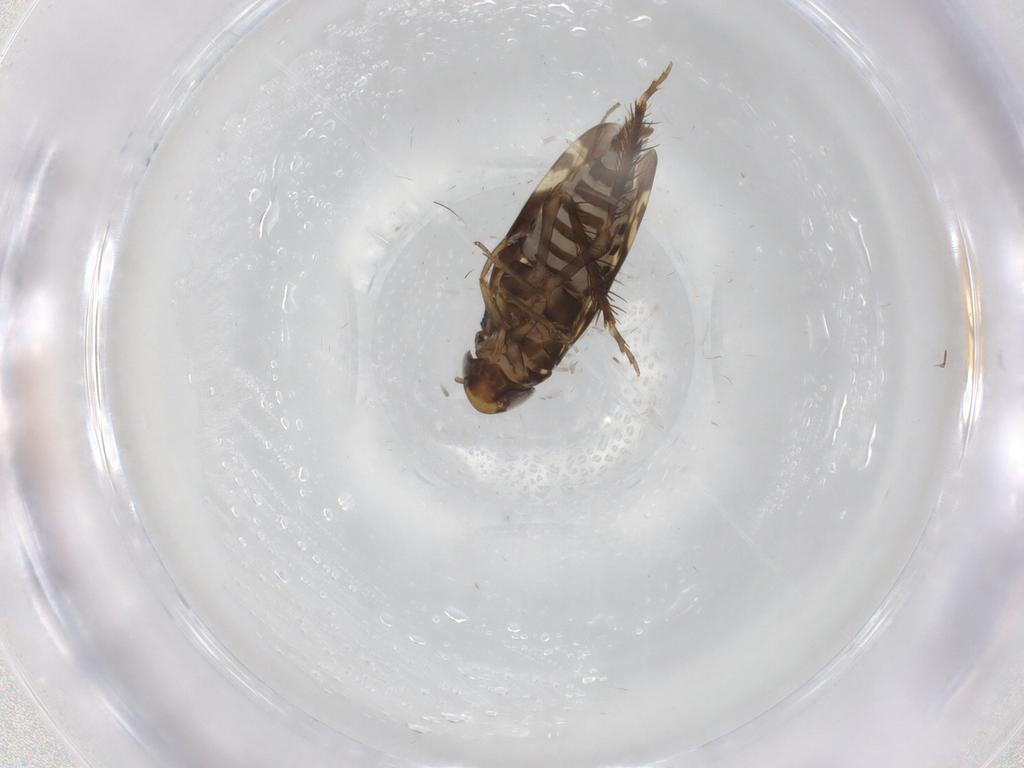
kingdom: Animalia
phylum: Arthropoda
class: Insecta
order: Hemiptera
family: Cicadellidae
